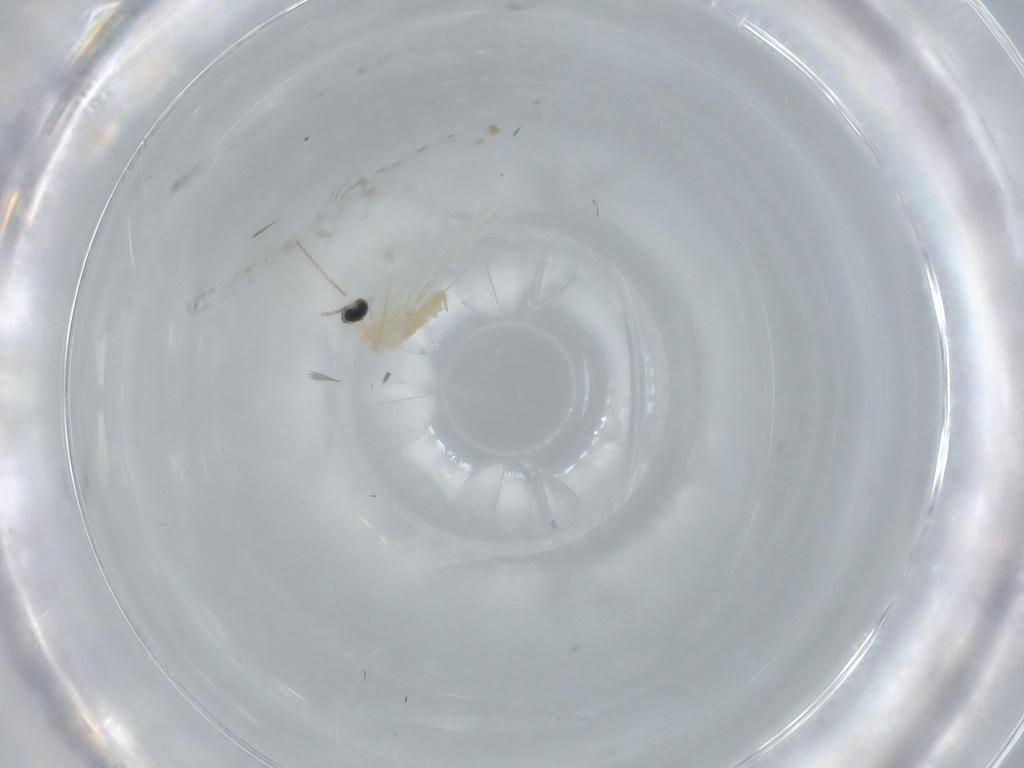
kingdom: Animalia
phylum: Arthropoda
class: Insecta
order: Diptera
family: Cecidomyiidae
